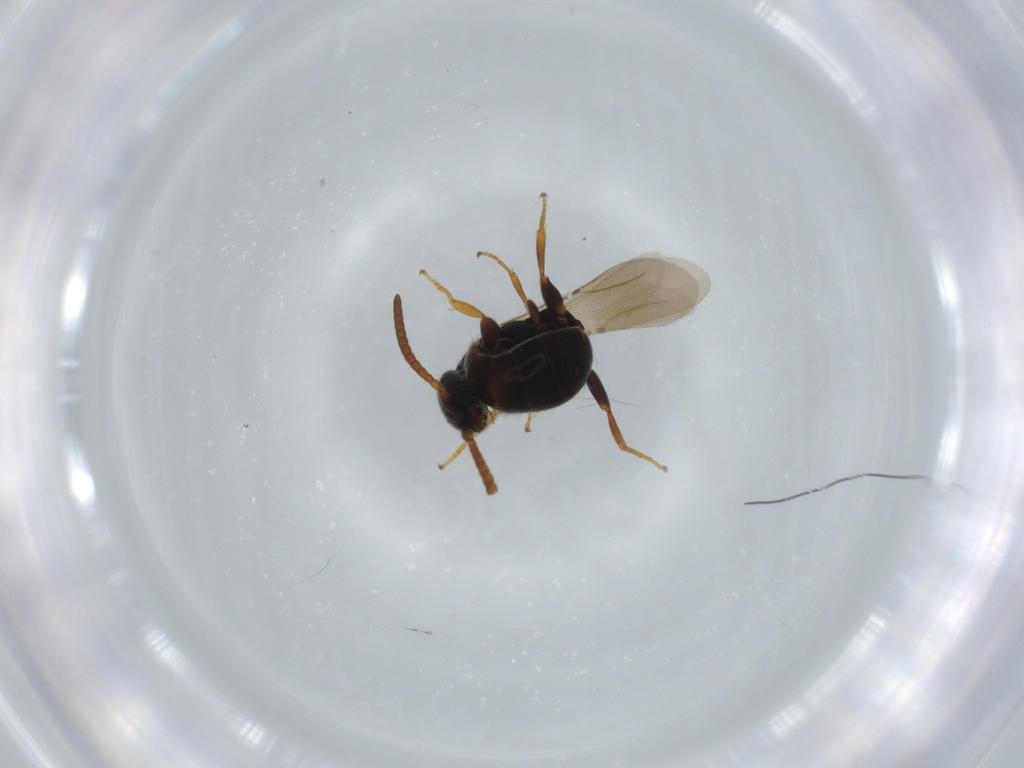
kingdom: Animalia
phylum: Arthropoda
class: Insecta
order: Hymenoptera
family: Bethylidae
